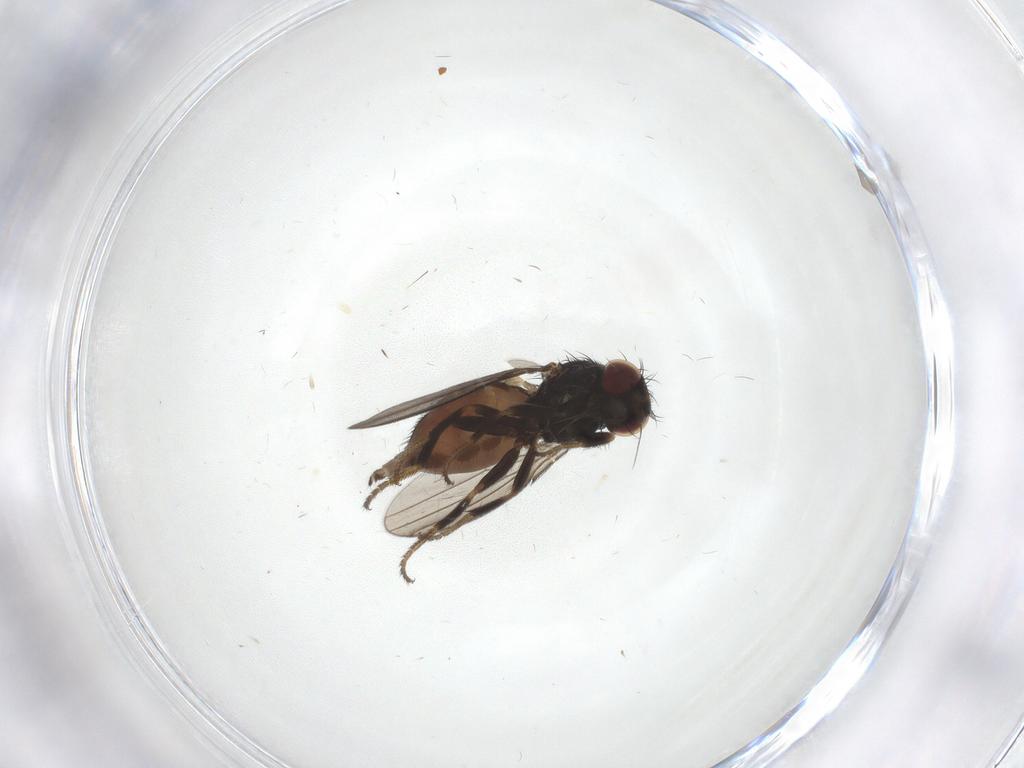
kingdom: Animalia
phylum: Arthropoda
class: Insecta
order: Diptera
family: Milichiidae
